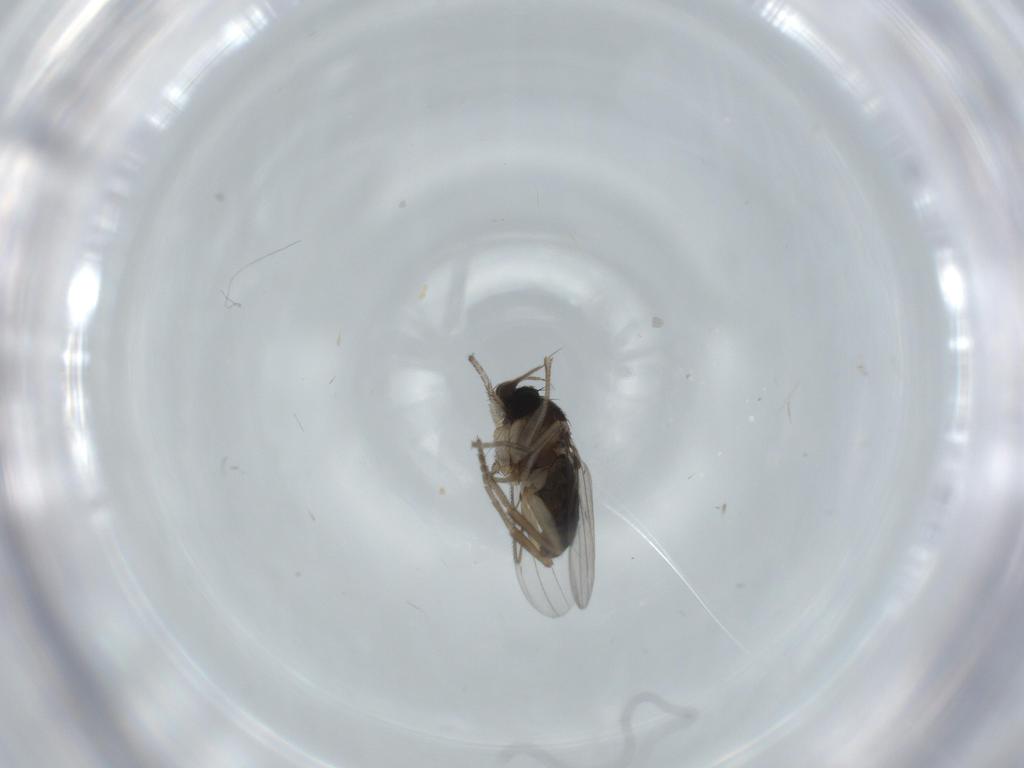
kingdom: Animalia
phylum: Arthropoda
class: Insecta
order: Diptera
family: Phoridae
